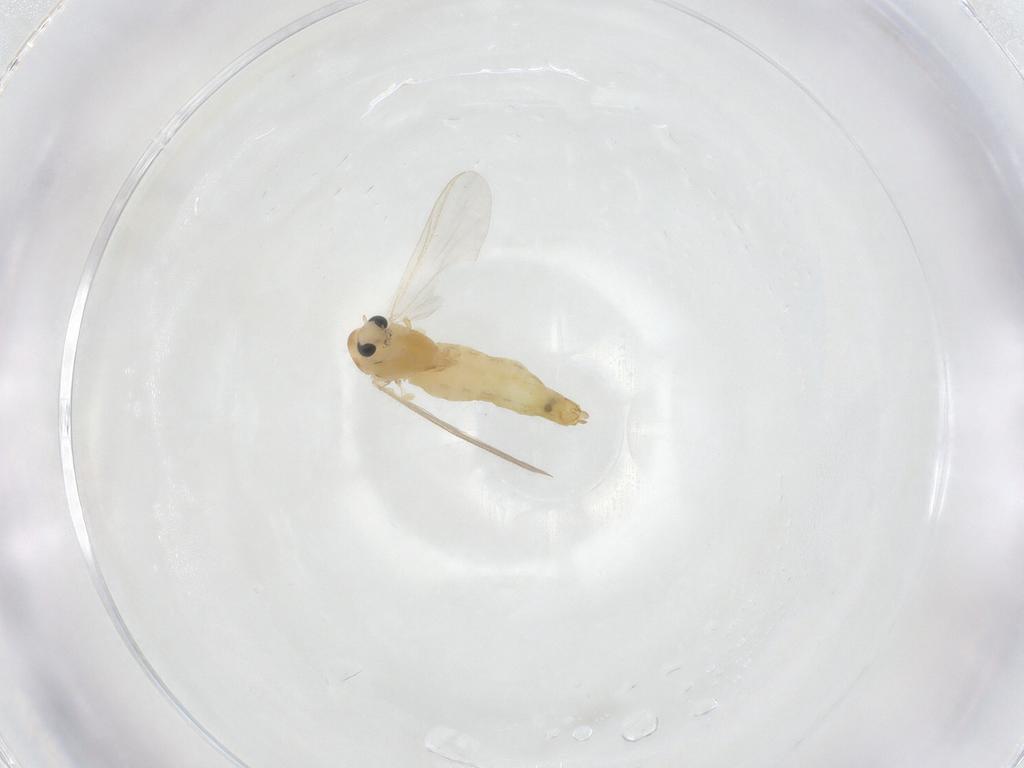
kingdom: Animalia
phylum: Arthropoda
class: Insecta
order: Diptera
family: Chironomidae
